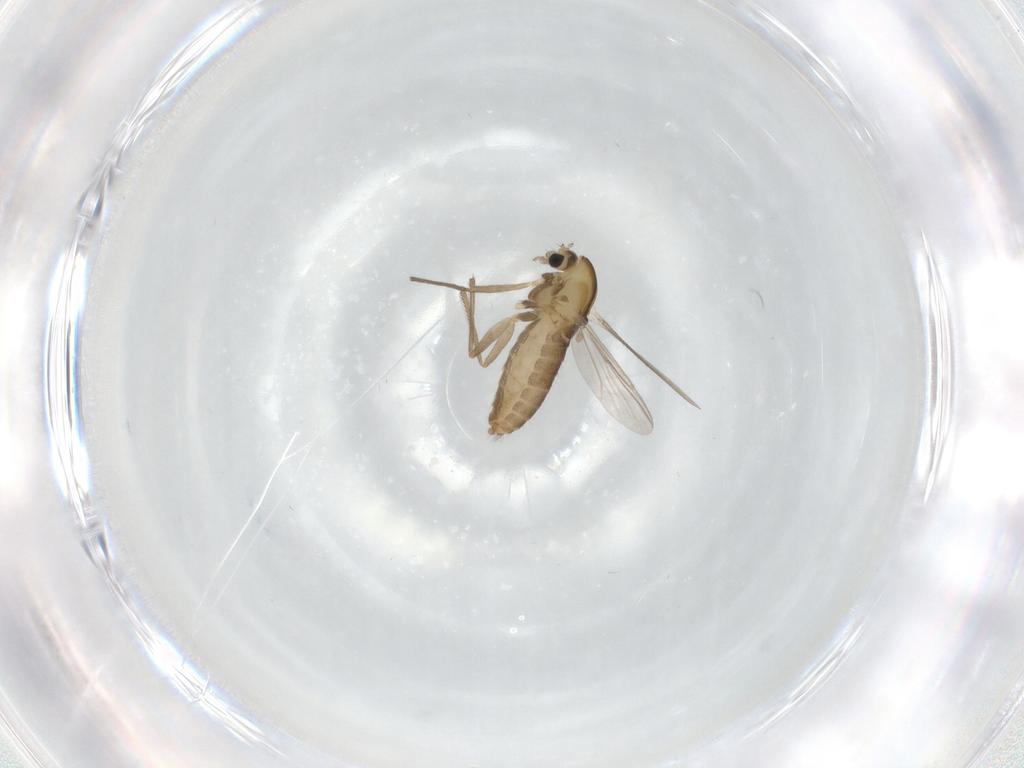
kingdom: Animalia
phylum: Arthropoda
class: Insecta
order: Diptera
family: Chironomidae
